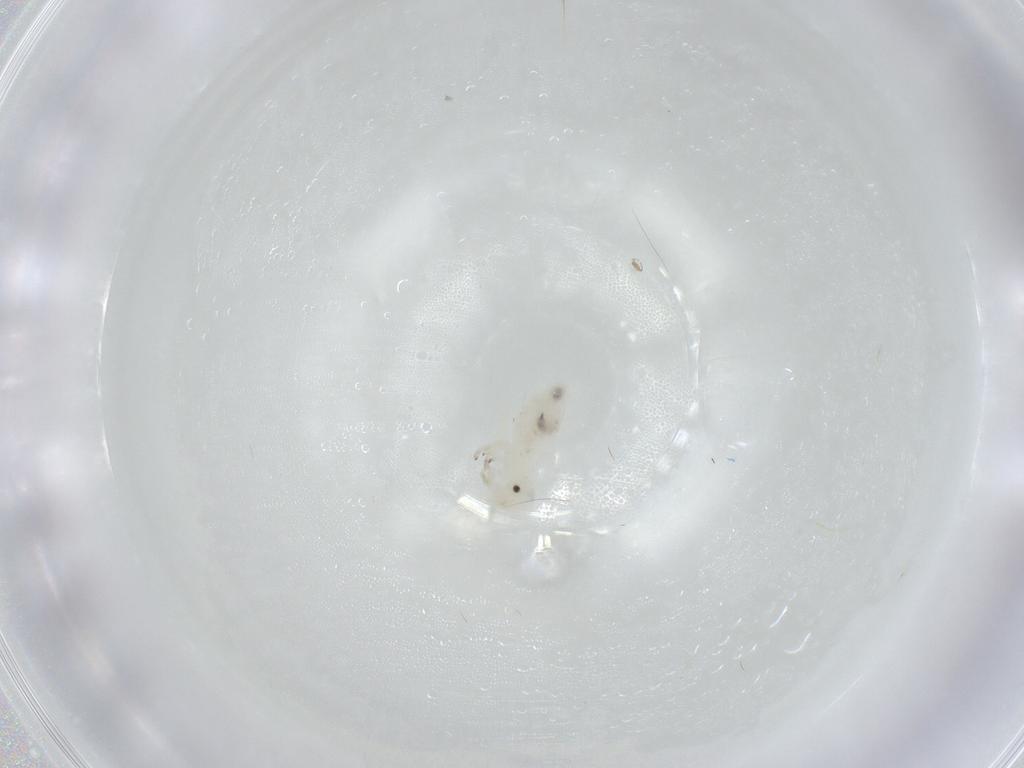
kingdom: Animalia
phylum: Arthropoda
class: Insecta
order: Psocodea
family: Caeciliusidae
